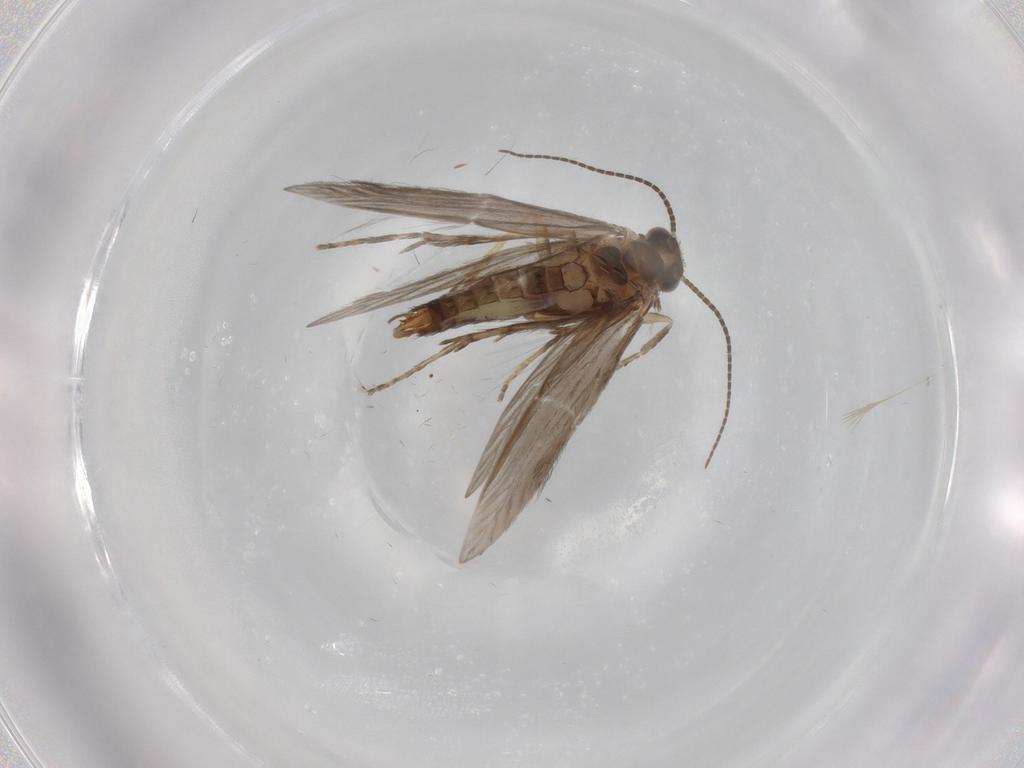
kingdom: Animalia
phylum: Arthropoda
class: Insecta
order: Trichoptera
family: Hydroptilidae
